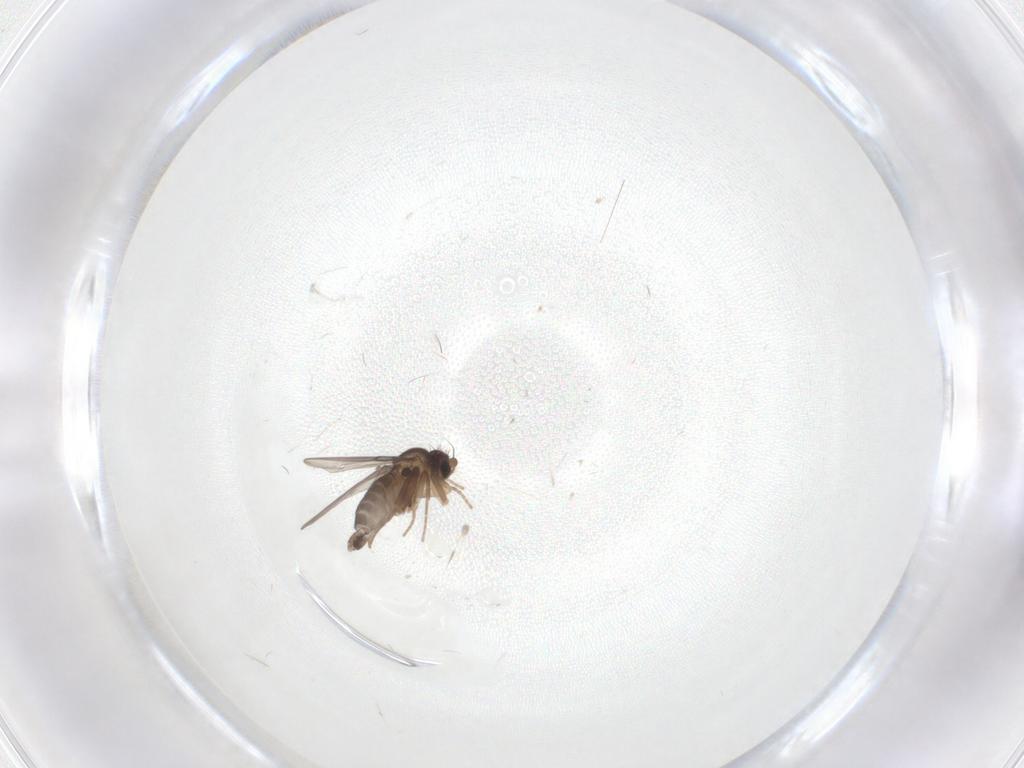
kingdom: Animalia
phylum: Arthropoda
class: Insecta
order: Diptera
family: Phoridae
